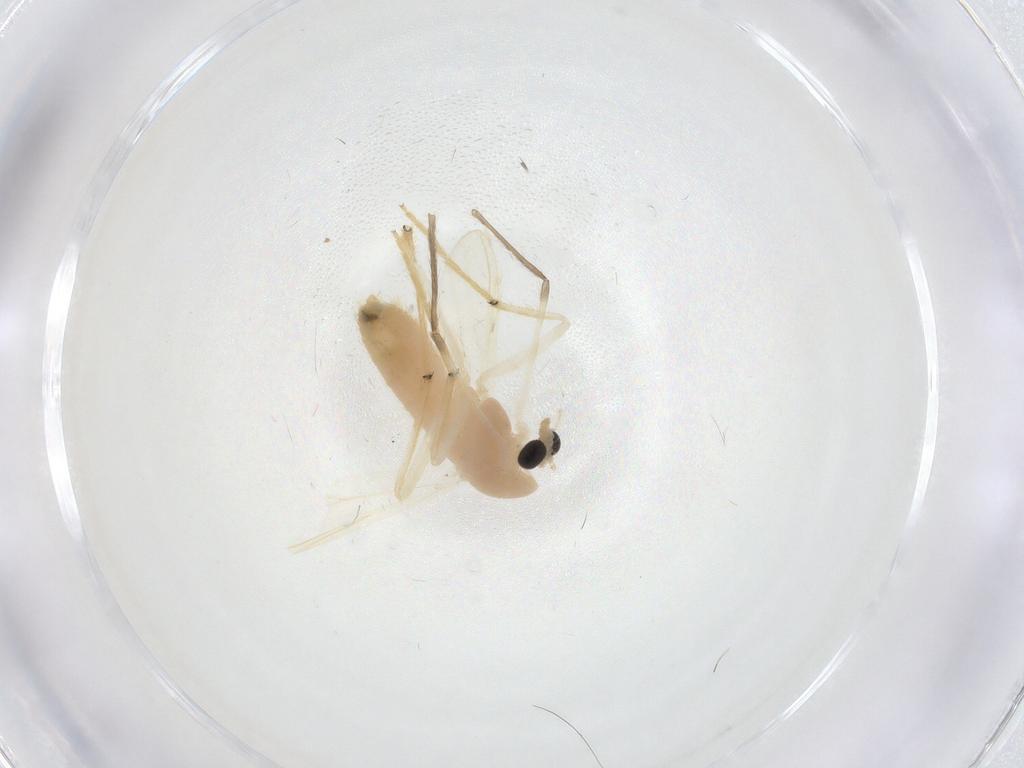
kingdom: Animalia
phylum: Arthropoda
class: Insecta
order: Diptera
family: Chironomidae
